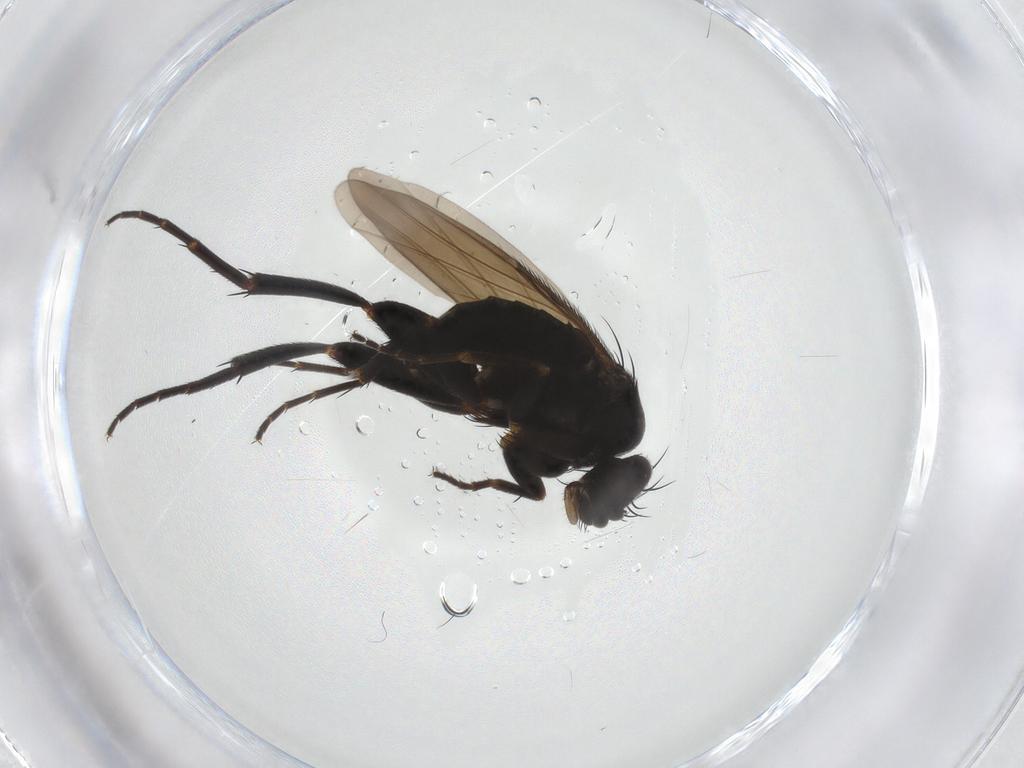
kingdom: Animalia
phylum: Arthropoda
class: Insecta
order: Diptera
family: Phoridae
